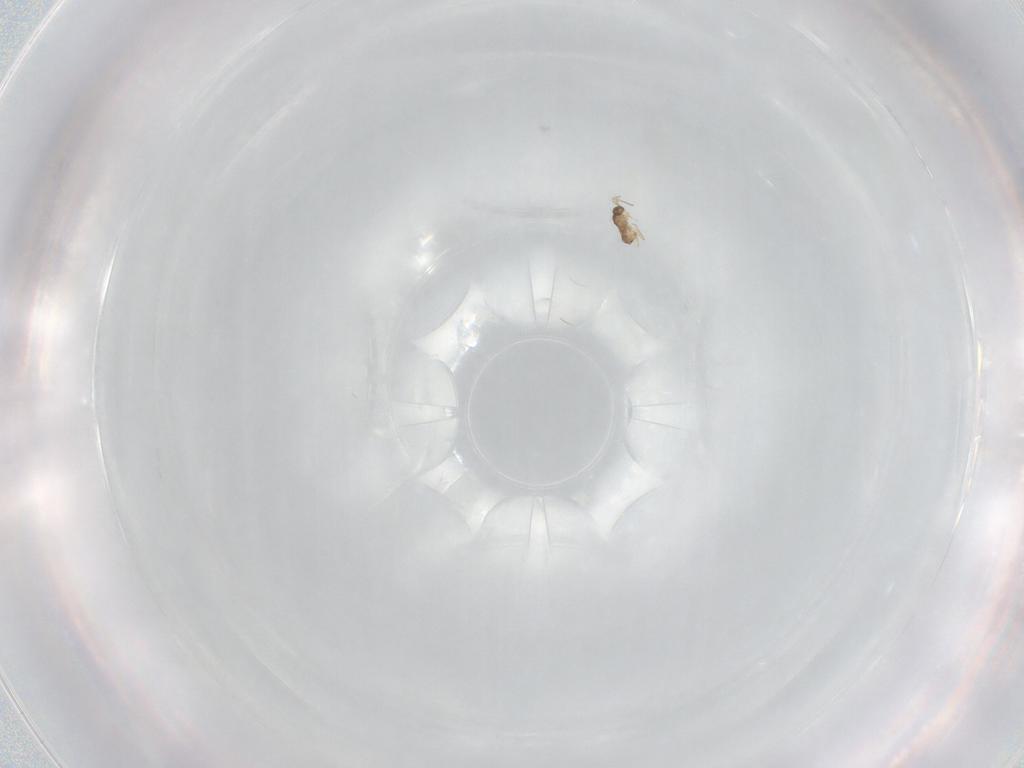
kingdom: Animalia
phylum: Arthropoda
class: Insecta
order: Hymenoptera
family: Mymaridae
